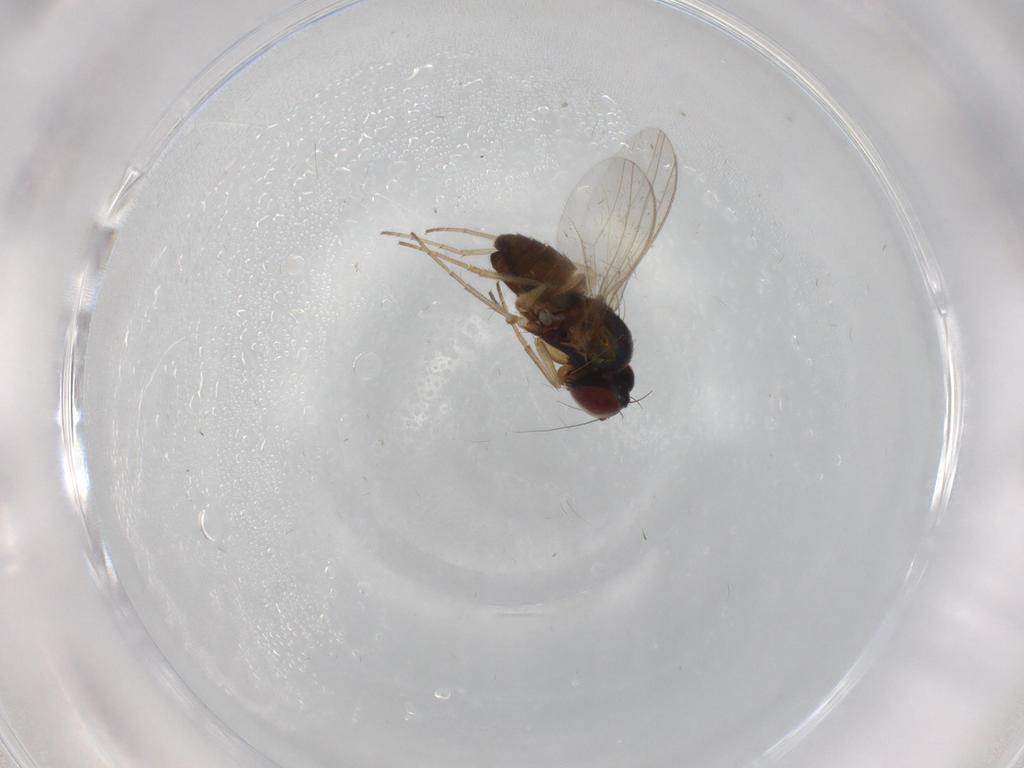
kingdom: Animalia
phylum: Arthropoda
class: Insecta
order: Diptera
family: Dolichopodidae
